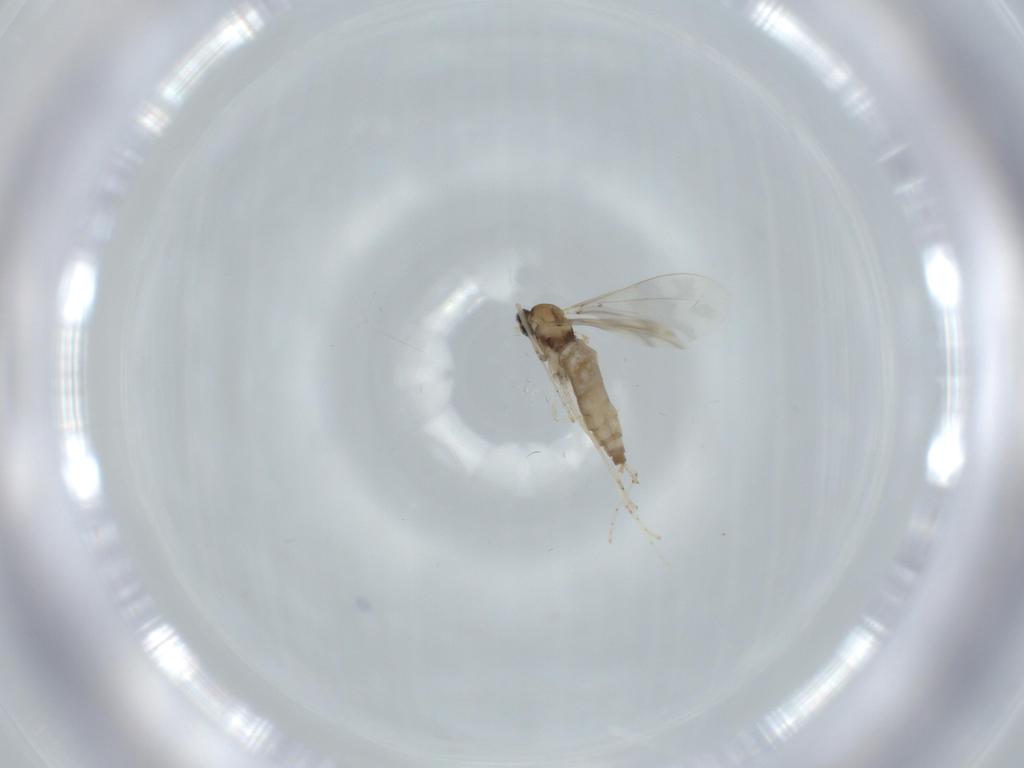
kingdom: Animalia
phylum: Arthropoda
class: Insecta
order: Diptera
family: Cecidomyiidae
